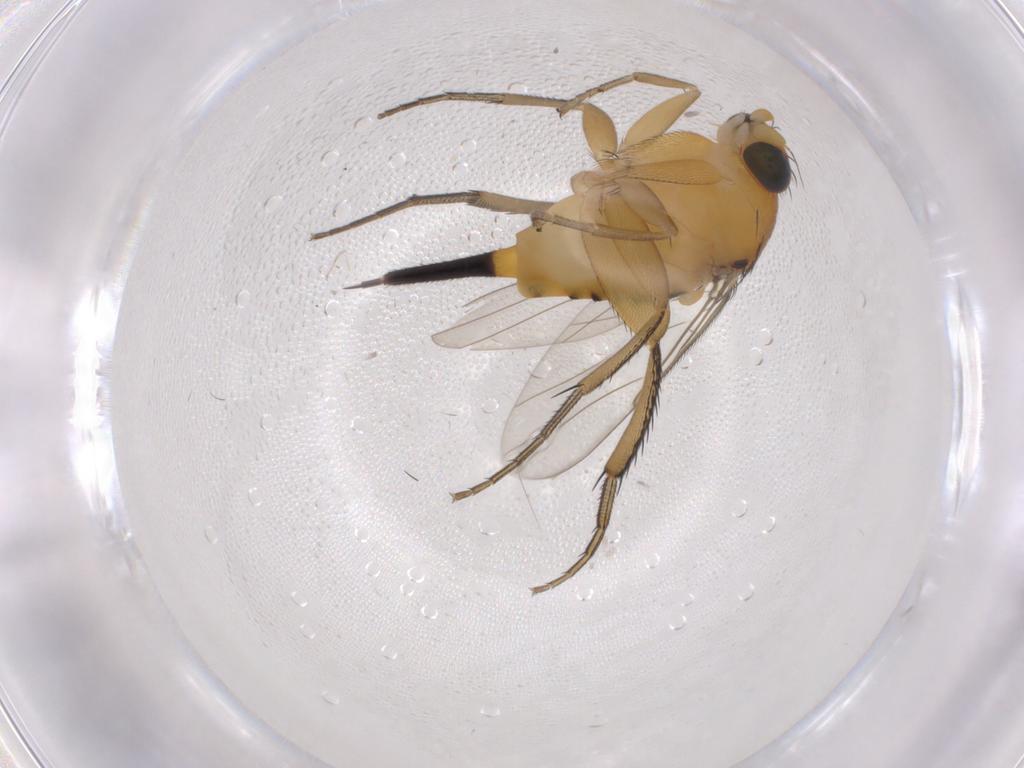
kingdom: Animalia
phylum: Arthropoda
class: Insecta
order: Diptera
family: Phoridae
